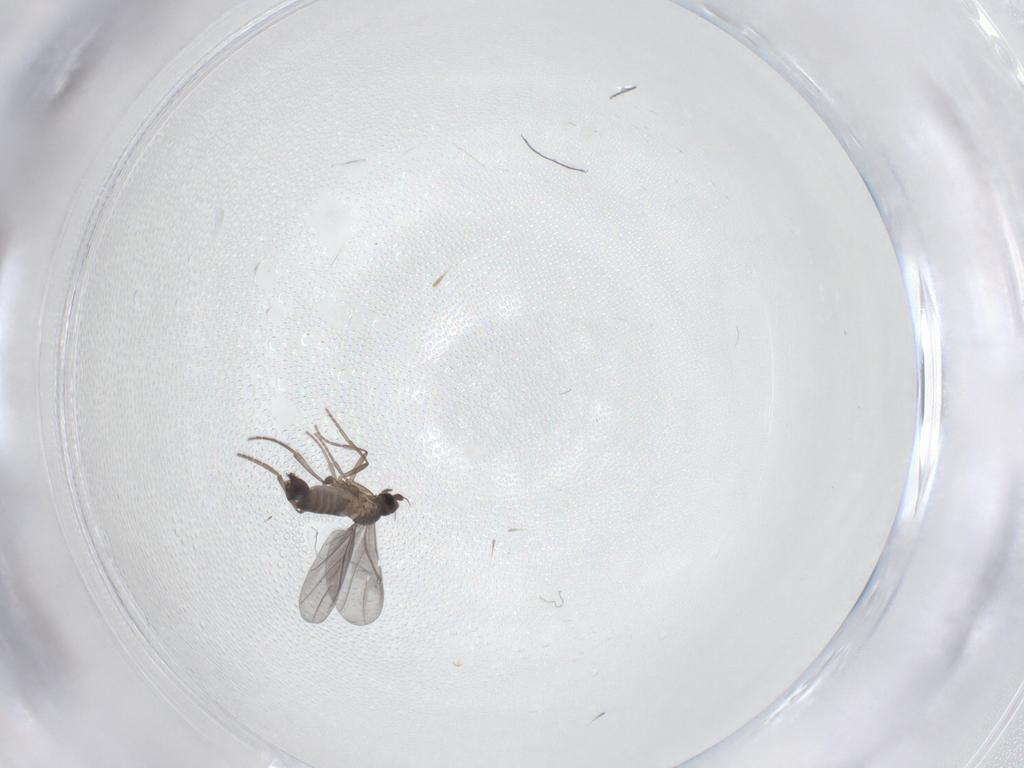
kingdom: Animalia
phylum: Arthropoda
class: Insecta
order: Diptera
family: Phoridae
